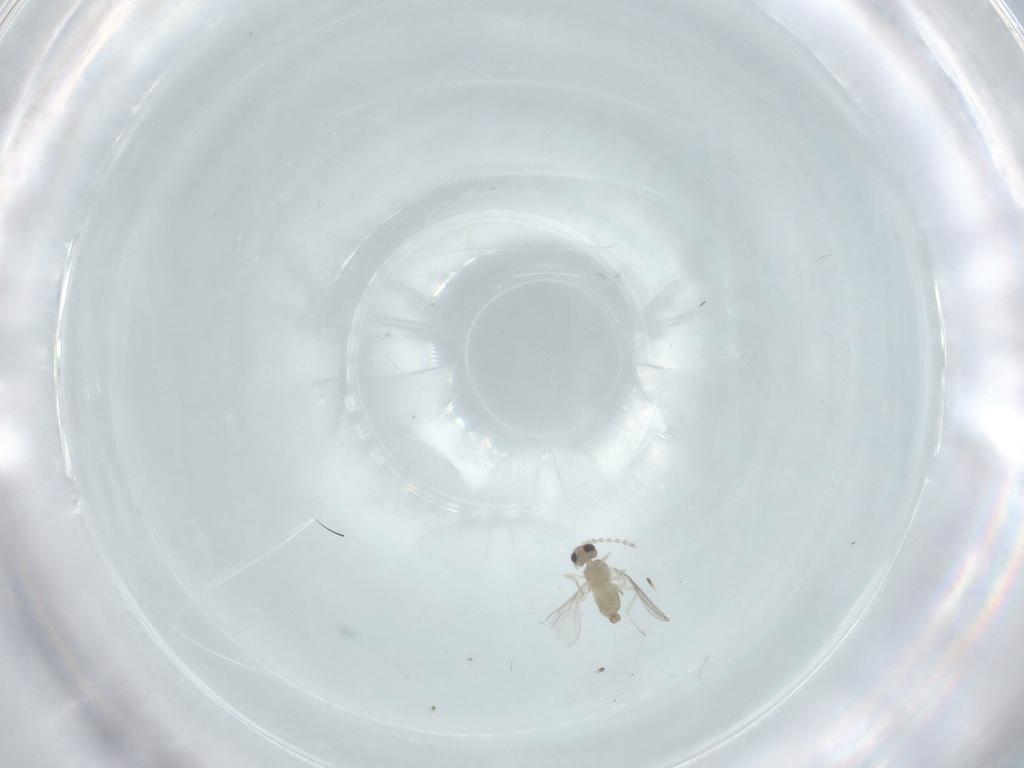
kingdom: Animalia
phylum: Arthropoda
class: Insecta
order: Diptera
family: Cecidomyiidae
